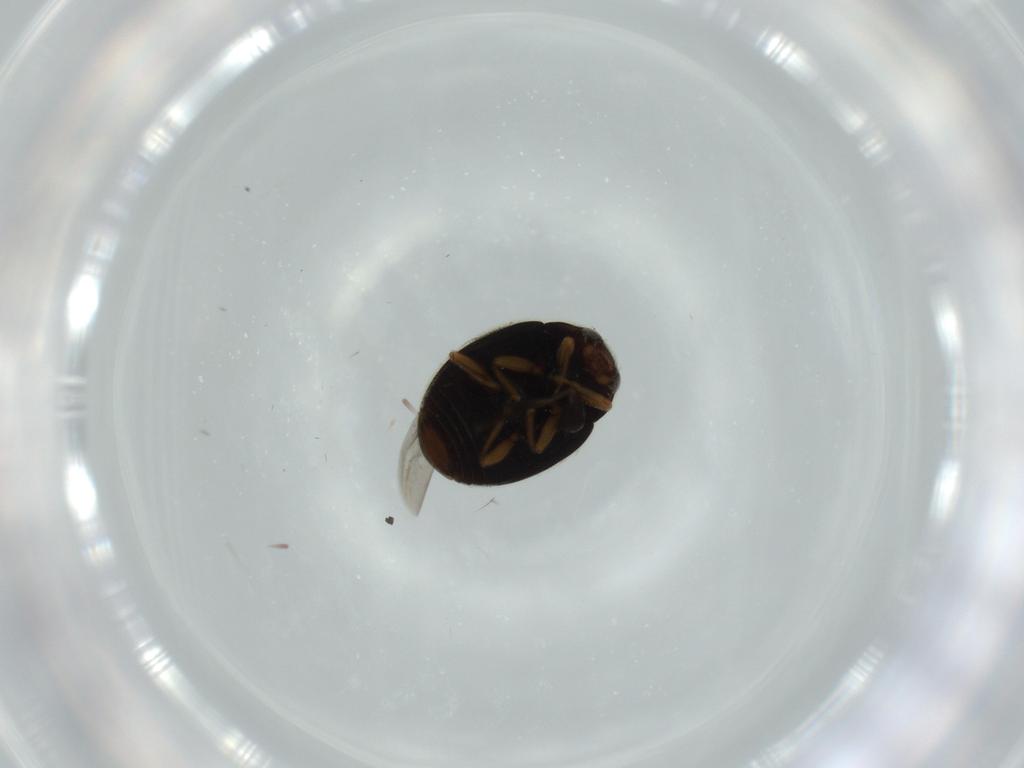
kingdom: Animalia
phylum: Arthropoda
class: Insecta
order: Coleoptera
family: Coccinellidae
